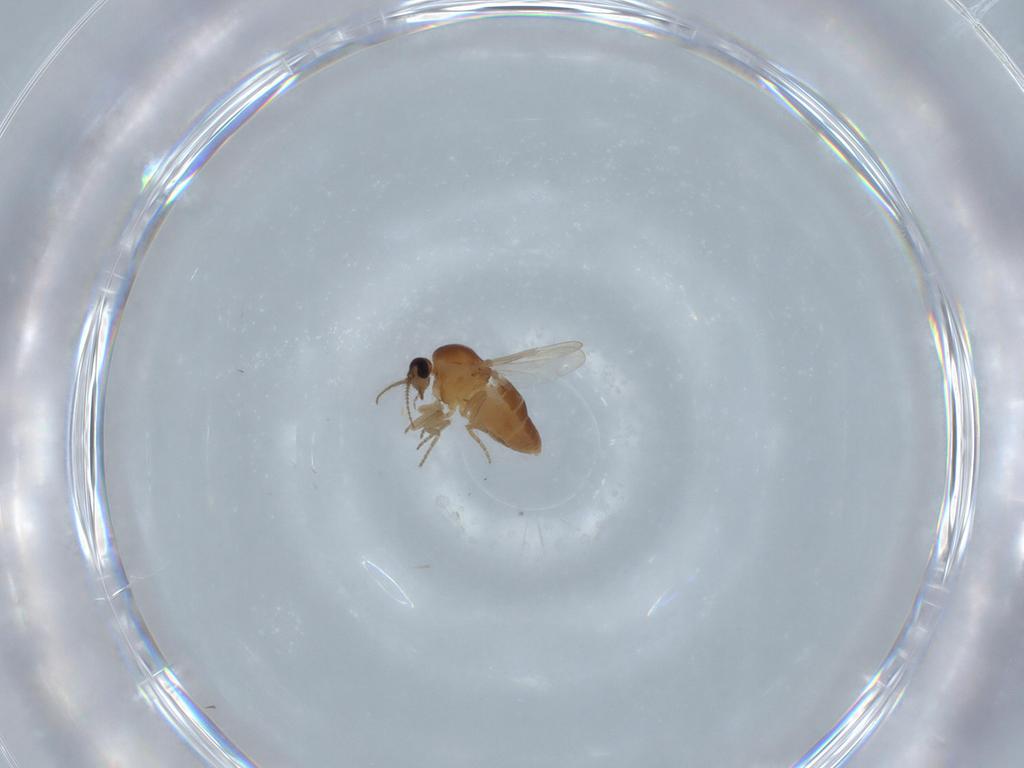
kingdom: Animalia
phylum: Arthropoda
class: Insecta
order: Diptera
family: Ceratopogonidae
